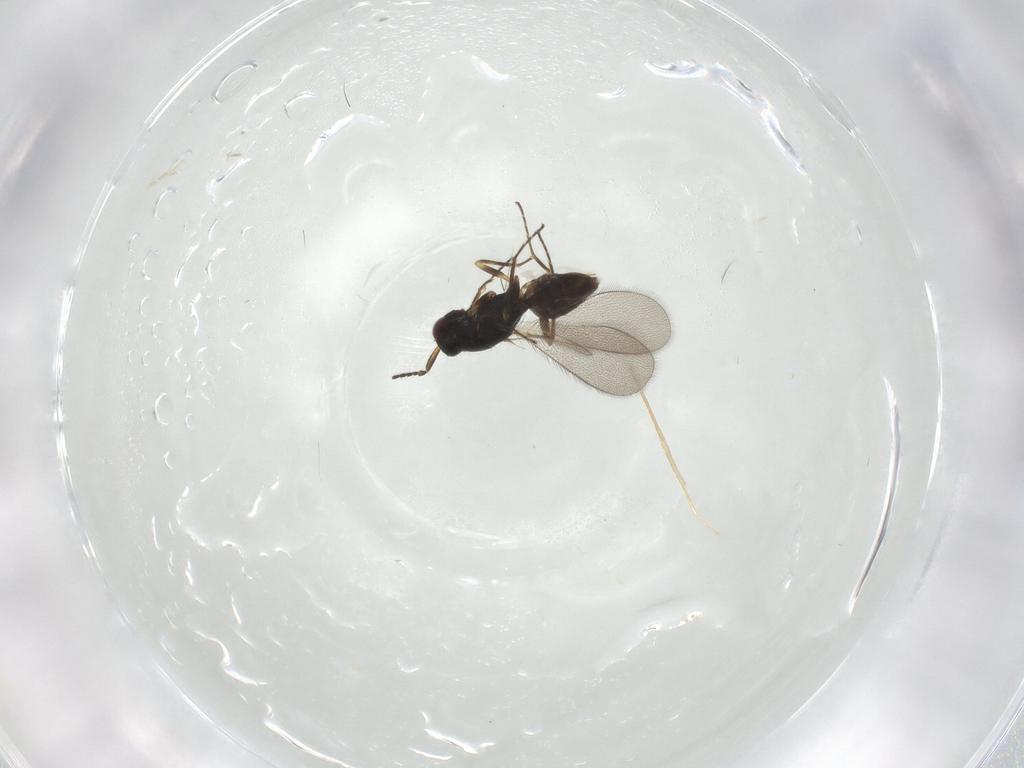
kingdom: Animalia
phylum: Arthropoda
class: Insecta
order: Hymenoptera
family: Mymaridae
